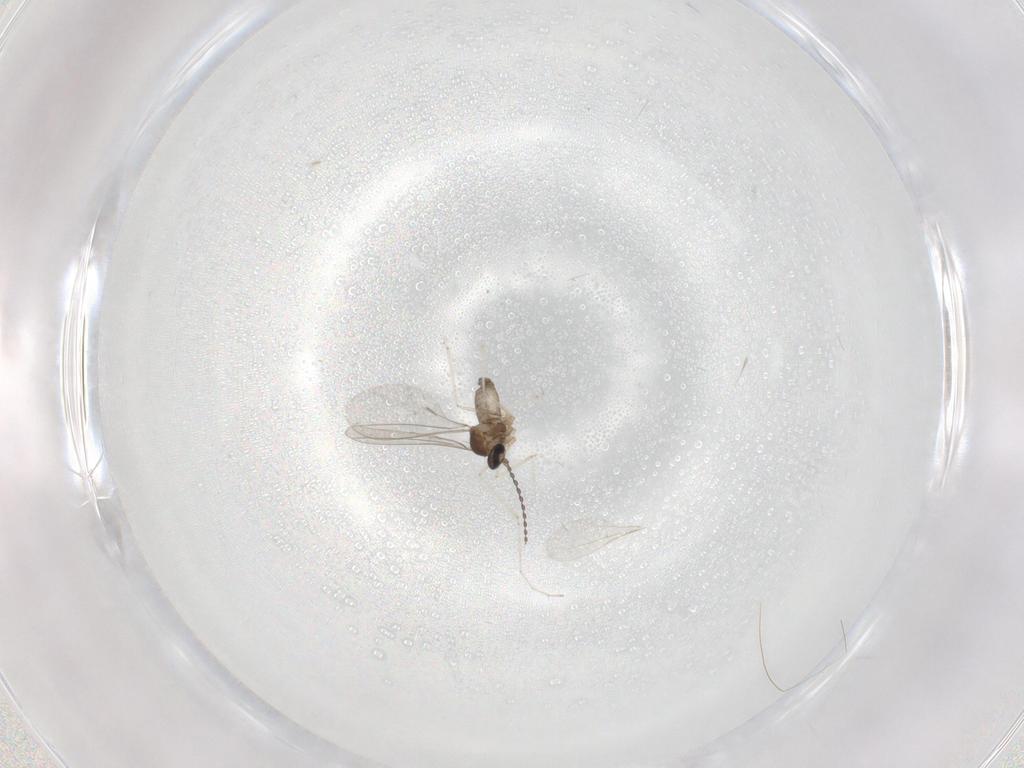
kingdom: Animalia
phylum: Arthropoda
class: Insecta
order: Diptera
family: Cecidomyiidae
